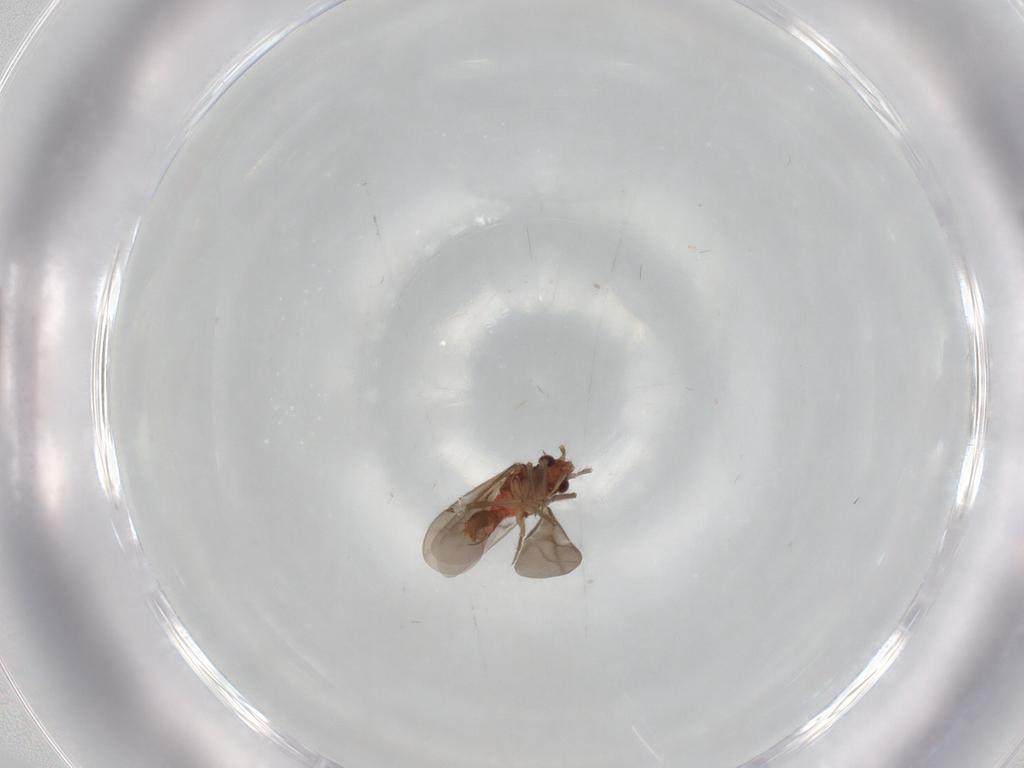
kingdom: Animalia
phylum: Arthropoda
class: Insecta
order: Hemiptera
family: Ceratocombidae
